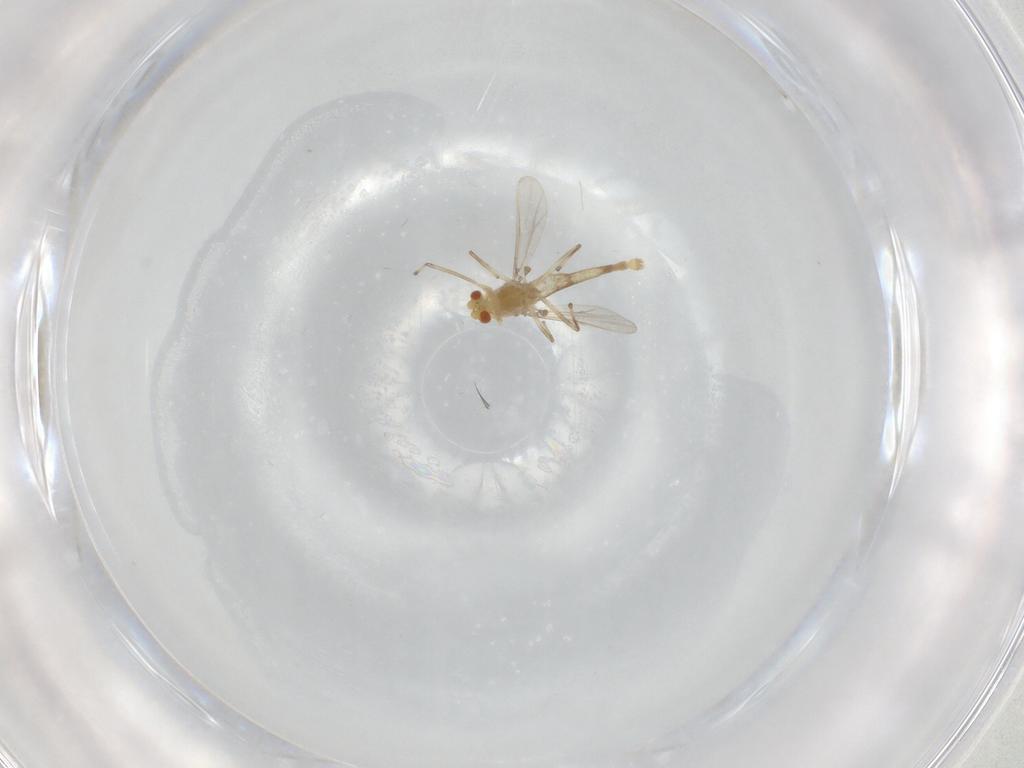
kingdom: Animalia
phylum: Arthropoda
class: Insecta
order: Diptera
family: Chironomidae
